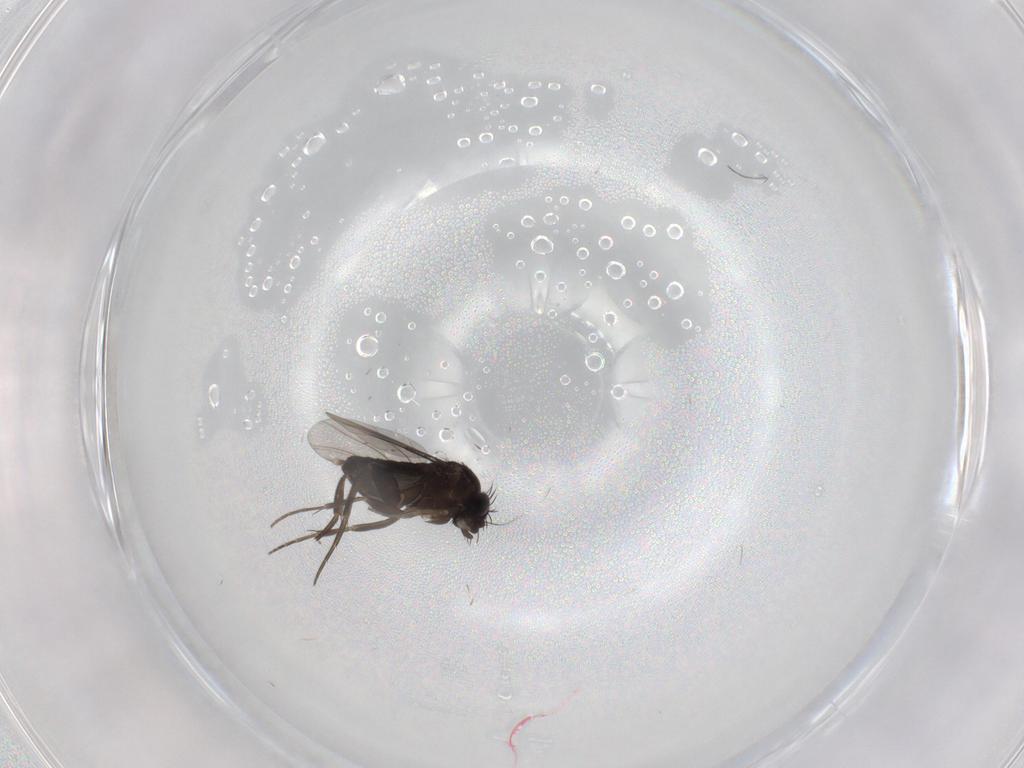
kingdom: Animalia
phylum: Arthropoda
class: Insecta
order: Diptera
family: Phoridae
